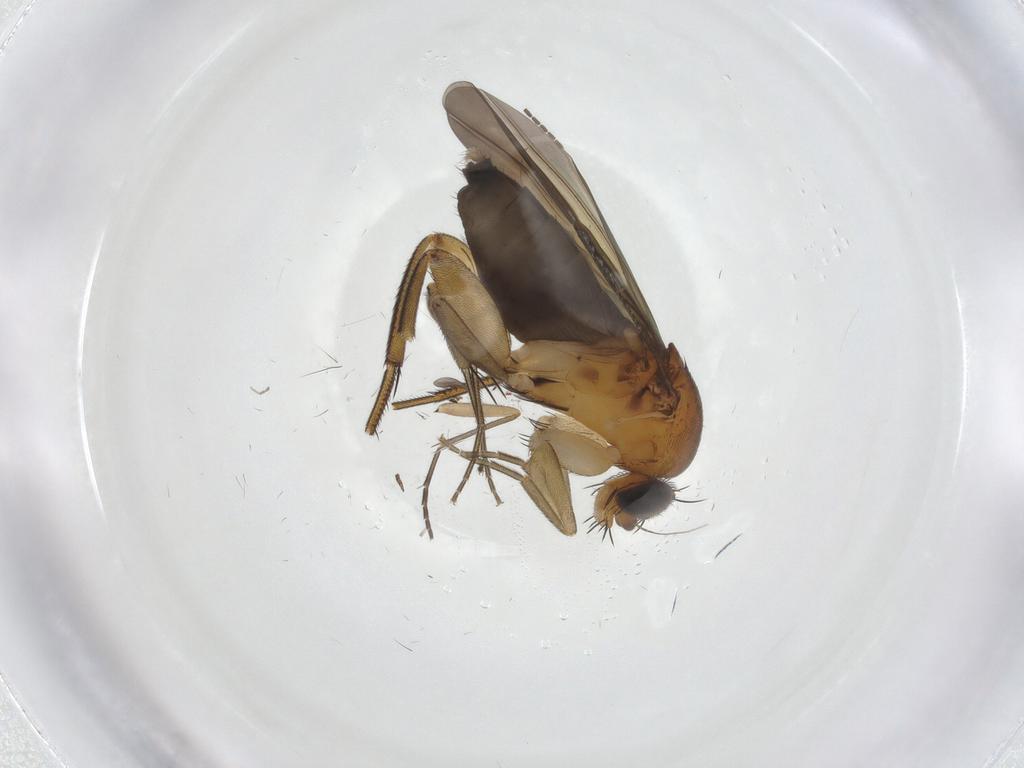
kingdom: Animalia
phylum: Arthropoda
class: Insecta
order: Diptera
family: Phoridae
